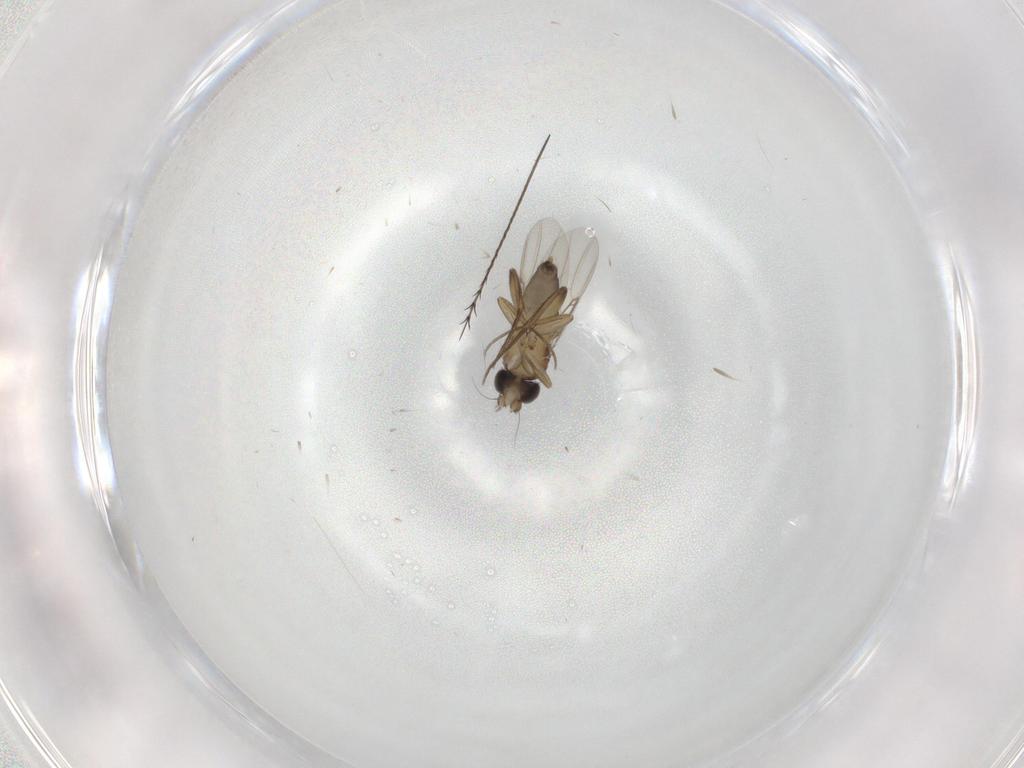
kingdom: Animalia
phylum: Arthropoda
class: Insecta
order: Diptera
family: Phoridae
